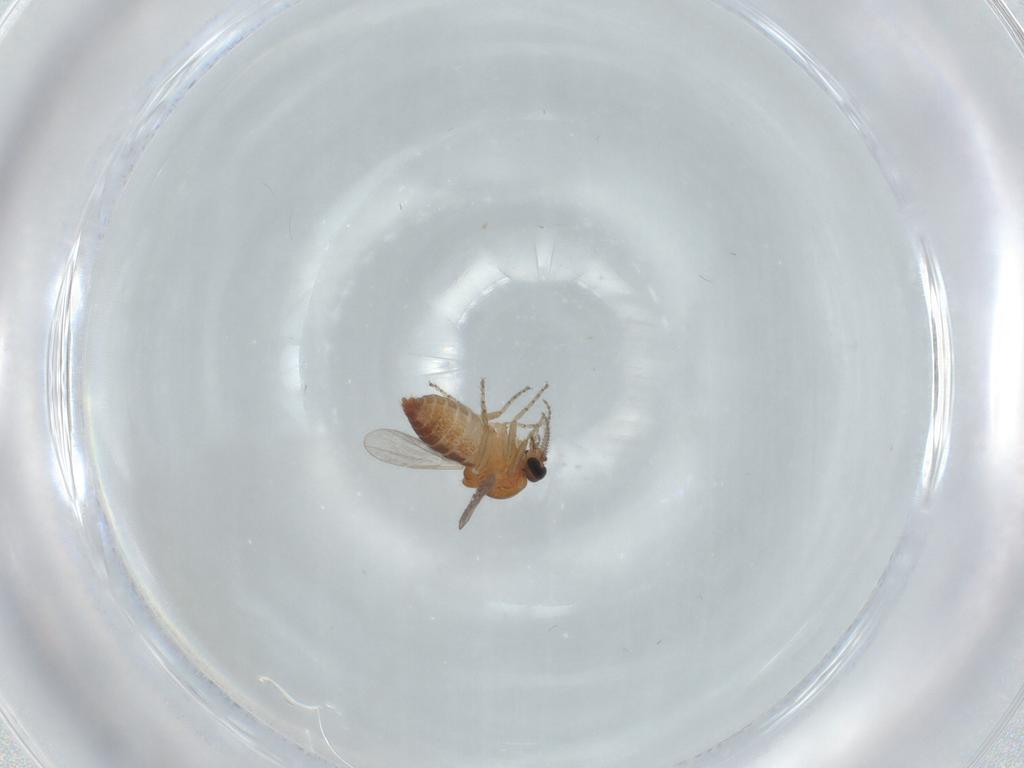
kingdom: Animalia
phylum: Arthropoda
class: Insecta
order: Diptera
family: Ceratopogonidae
